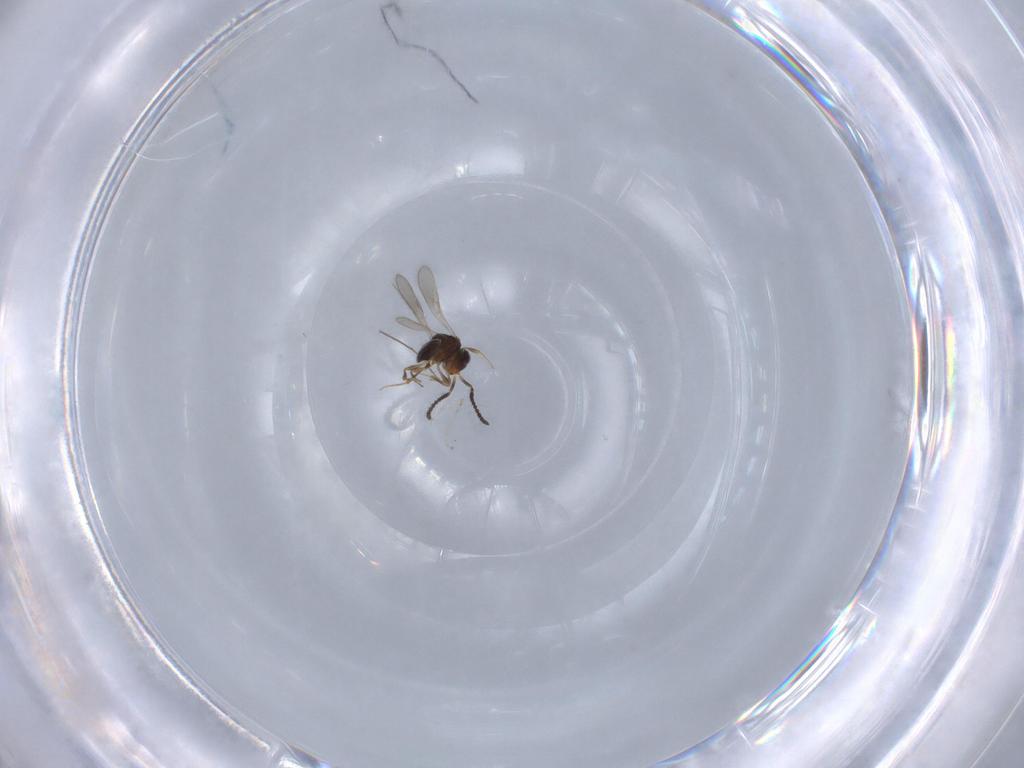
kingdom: Animalia
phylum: Arthropoda
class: Insecta
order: Hymenoptera
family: Scelionidae
